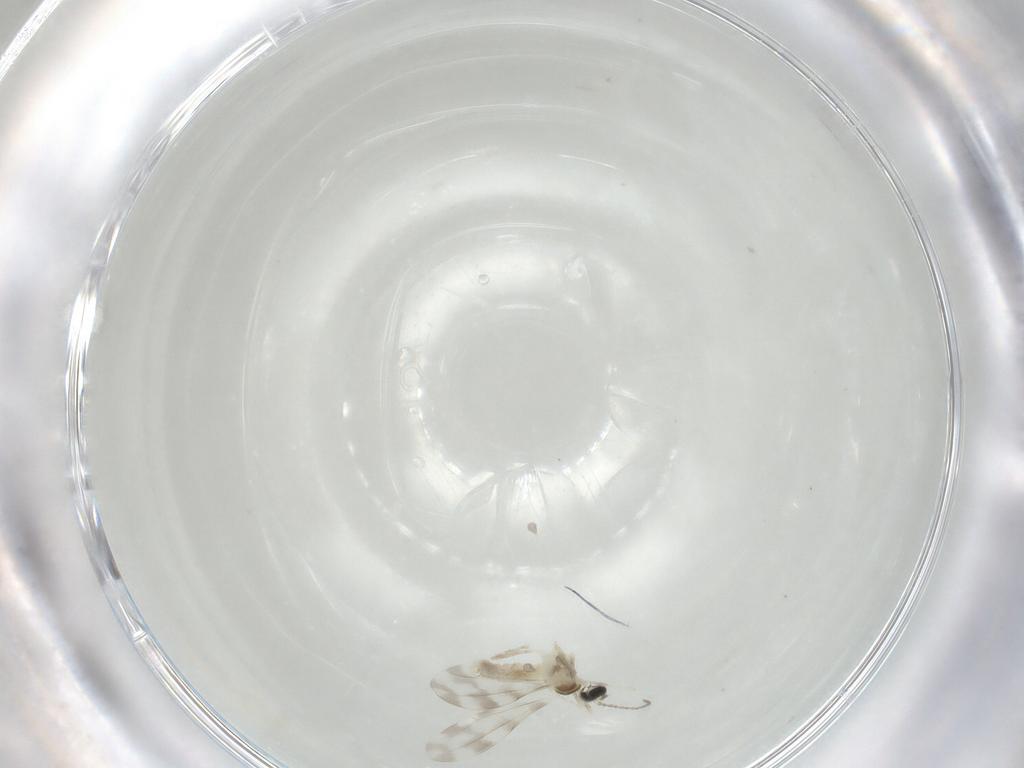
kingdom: Animalia
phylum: Arthropoda
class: Insecta
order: Diptera
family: Cecidomyiidae
